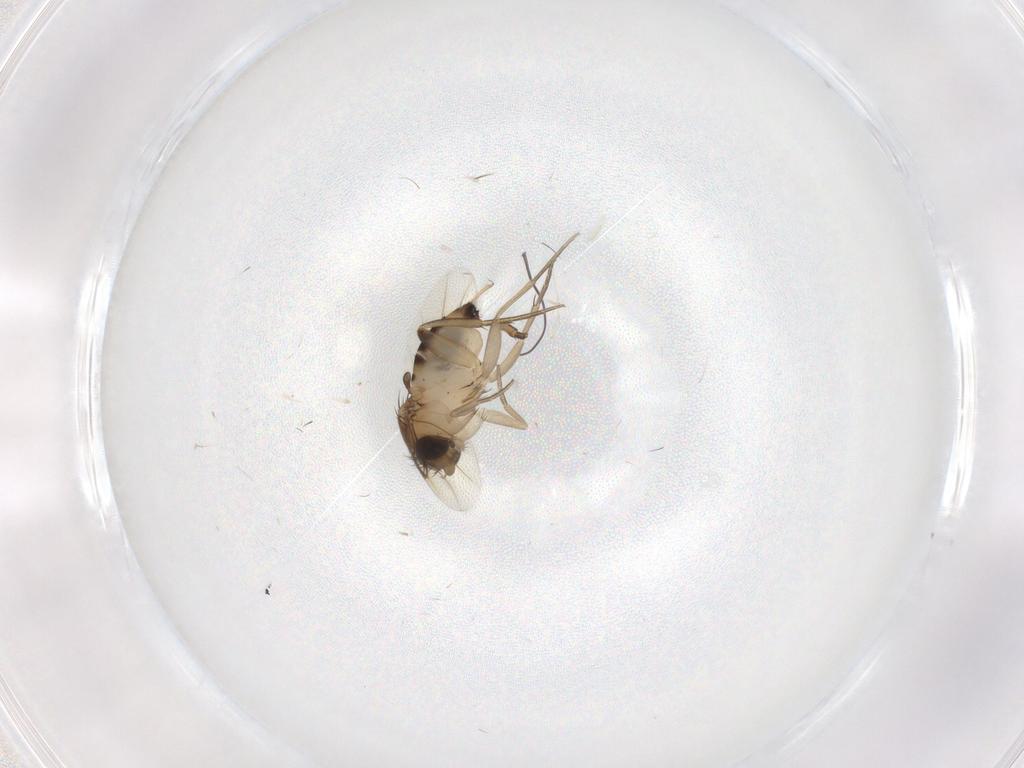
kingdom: Animalia
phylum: Arthropoda
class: Insecta
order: Diptera
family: Phoridae
